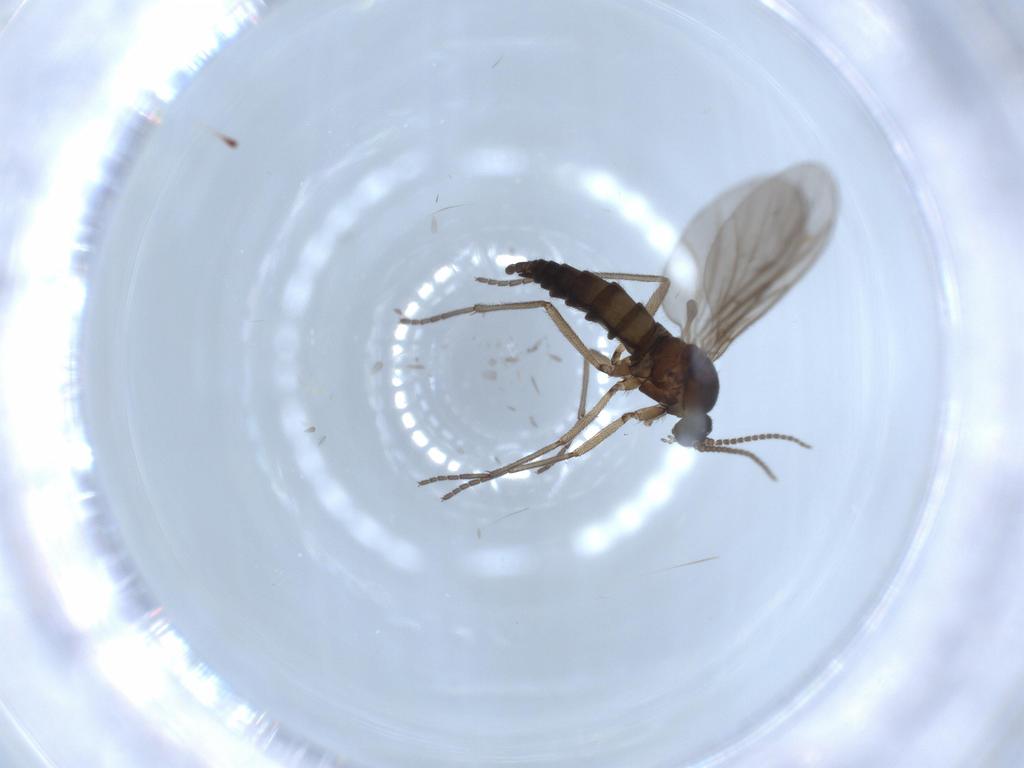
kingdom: Animalia
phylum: Arthropoda
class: Insecta
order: Diptera
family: Sciaridae
